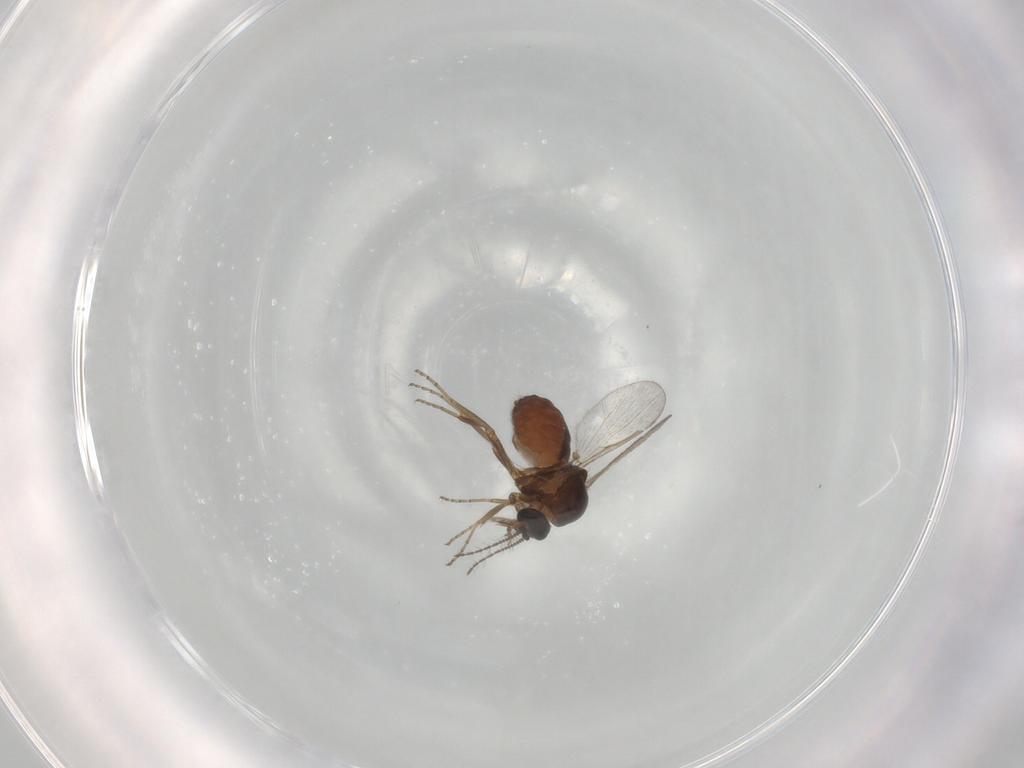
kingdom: Animalia
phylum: Arthropoda
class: Insecta
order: Diptera
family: Ceratopogonidae
